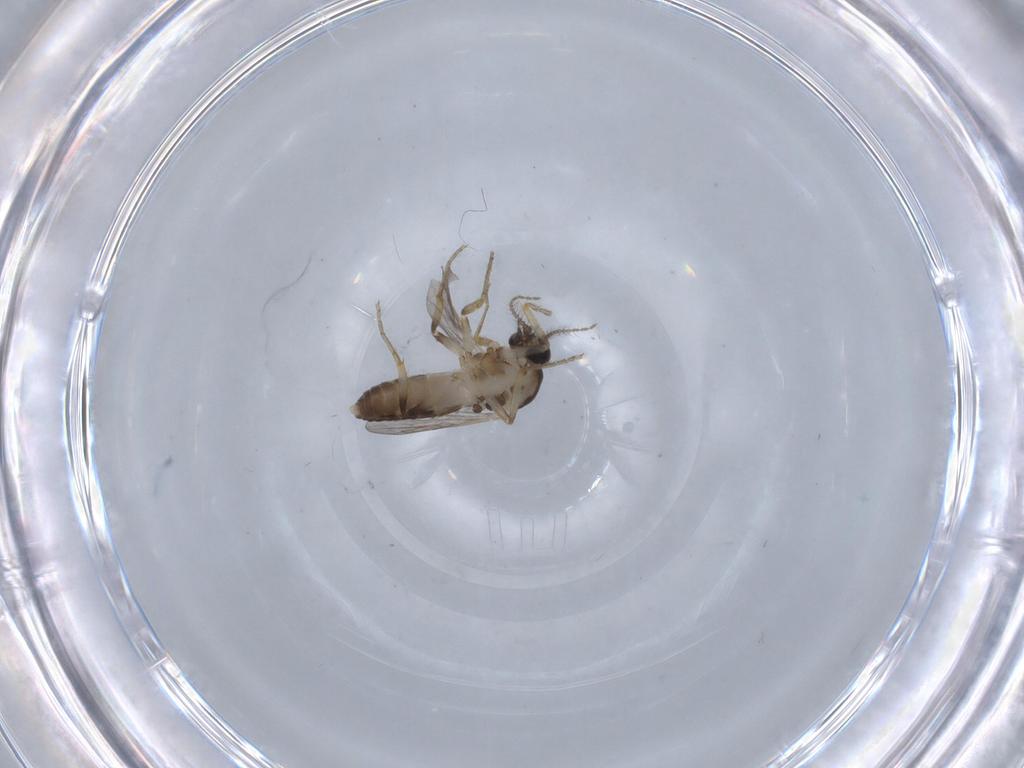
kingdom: Animalia
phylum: Arthropoda
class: Insecta
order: Diptera
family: Ceratopogonidae
